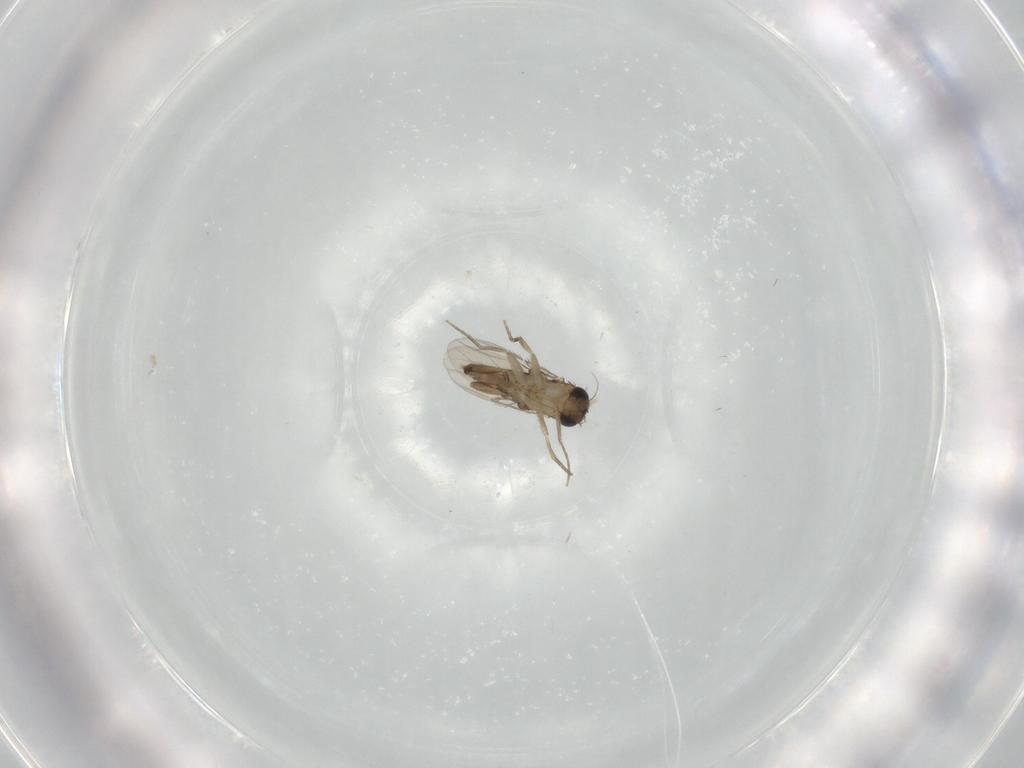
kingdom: Animalia
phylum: Arthropoda
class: Insecta
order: Diptera
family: Phoridae
